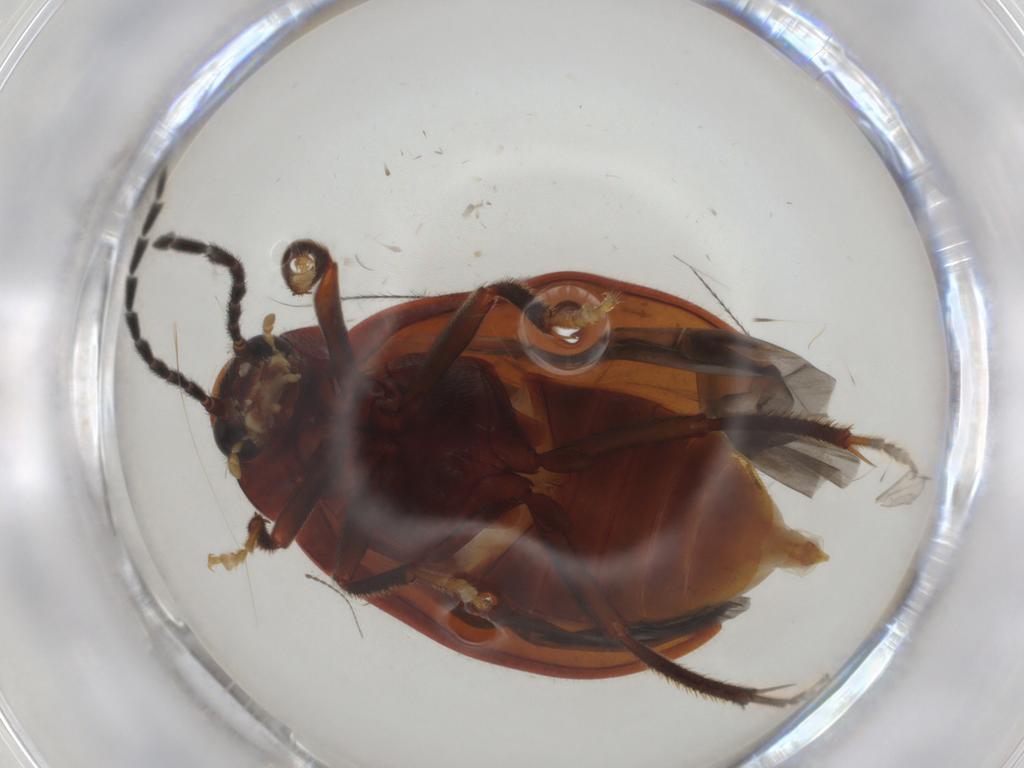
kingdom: Animalia
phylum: Arthropoda
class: Insecta
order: Coleoptera
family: Ptilodactylidae
